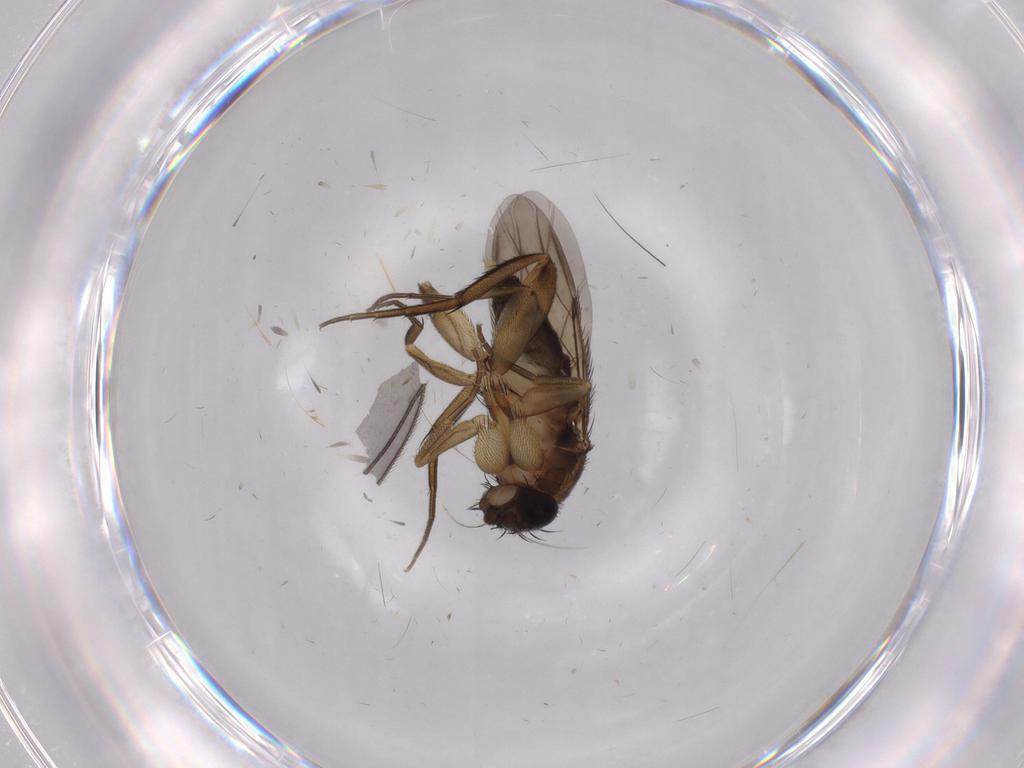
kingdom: Animalia
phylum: Arthropoda
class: Insecta
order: Diptera
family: Phoridae
